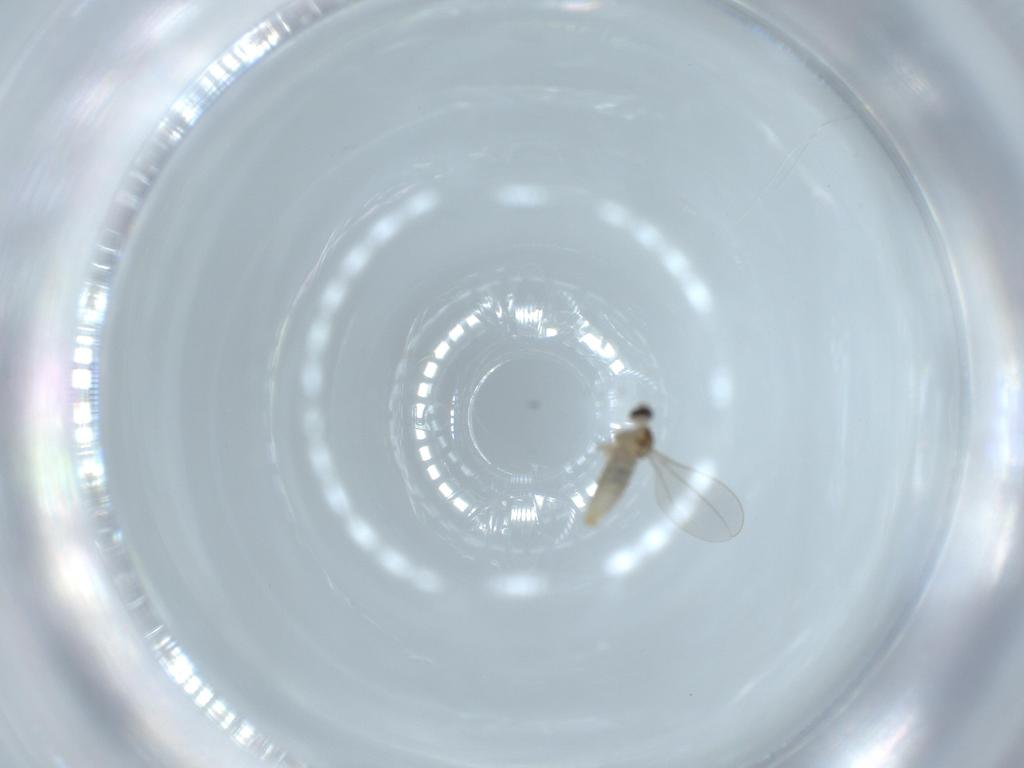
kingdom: Animalia
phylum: Arthropoda
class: Insecta
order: Diptera
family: Cecidomyiidae
